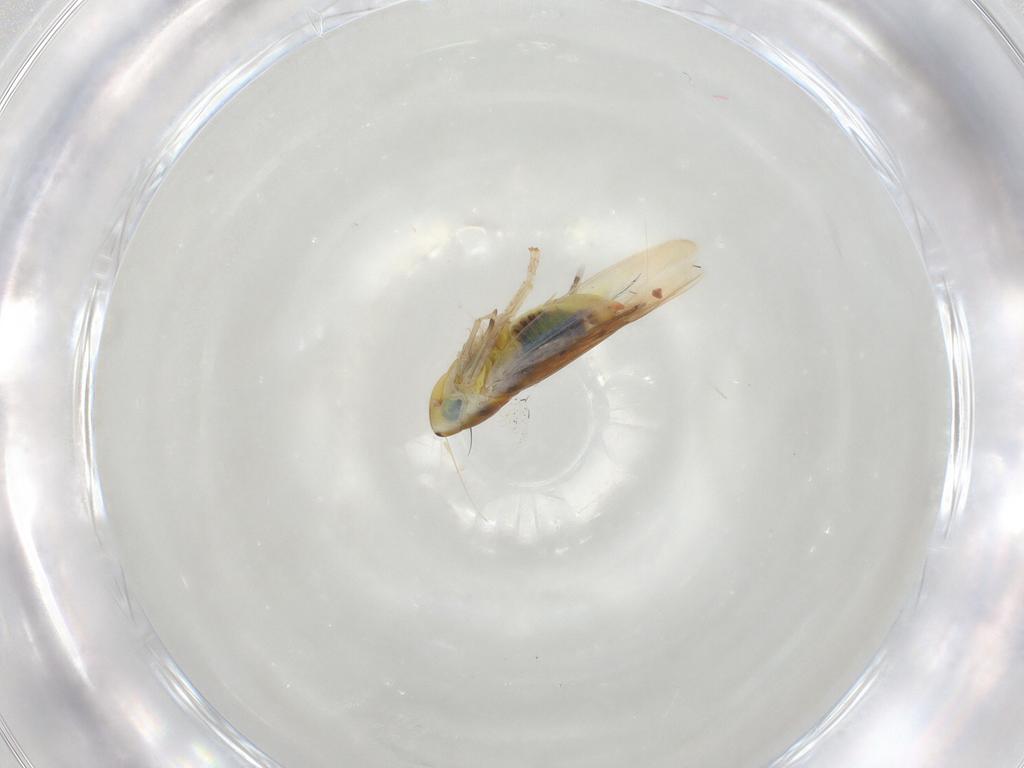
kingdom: Animalia
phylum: Arthropoda
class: Insecta
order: Hemiptera
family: Cicadellidae
